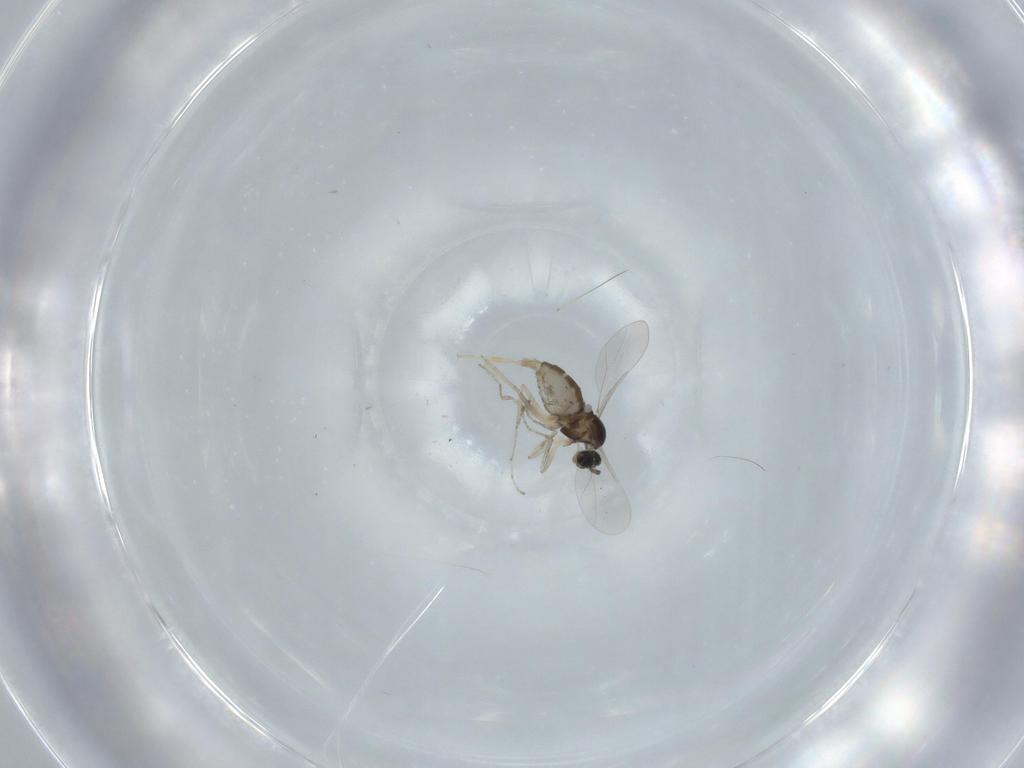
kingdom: Animalia
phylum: Arthropoda
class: Insecta
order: Diptera
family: Cecidomyiidae
